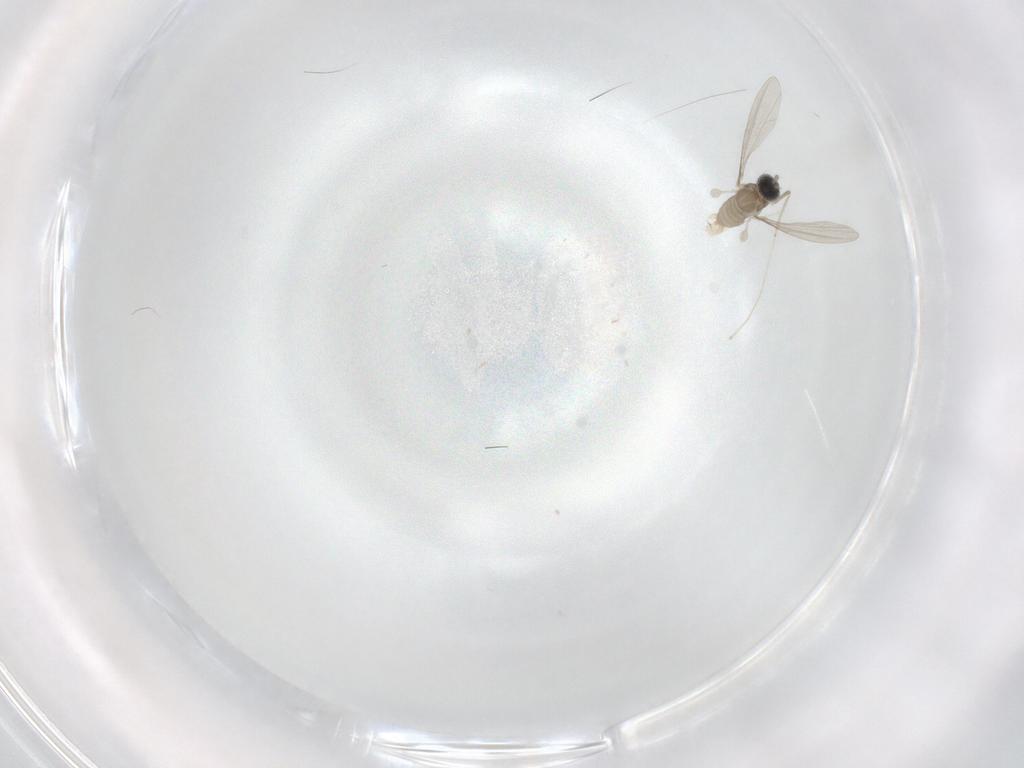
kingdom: Animalia
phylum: Arthropoda
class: Insecta
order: Diptera
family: Cecidomyiidae
